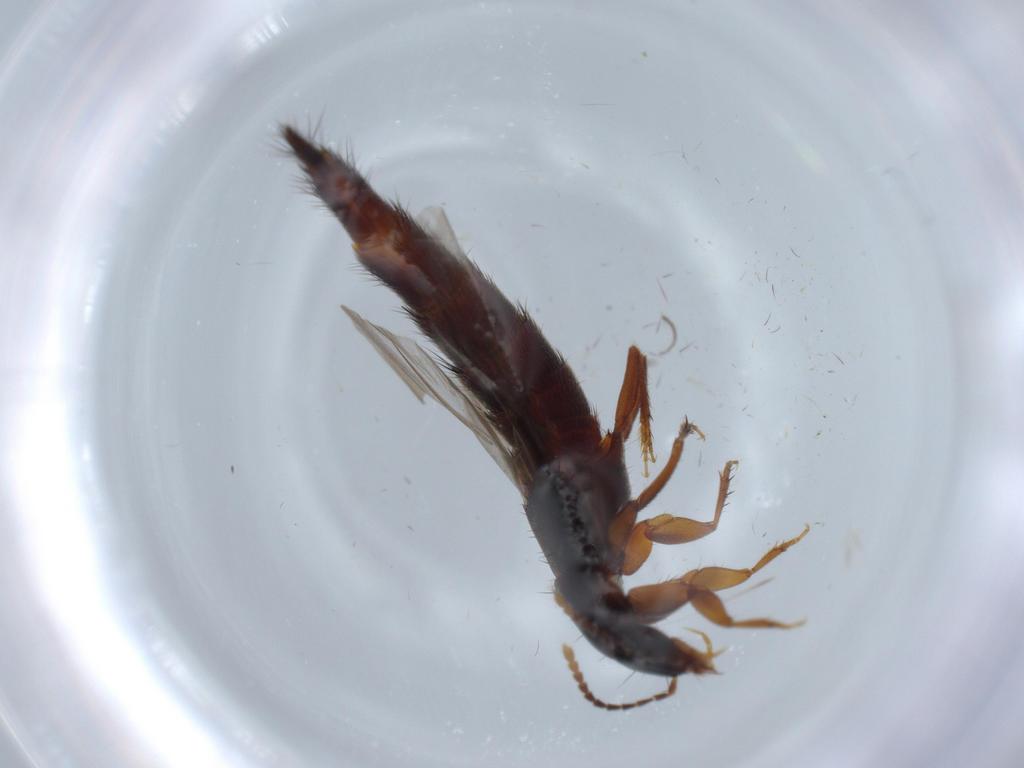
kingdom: Animalia
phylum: Arthropoda
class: Insecta
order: Coleoptera
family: Staphylinidae
